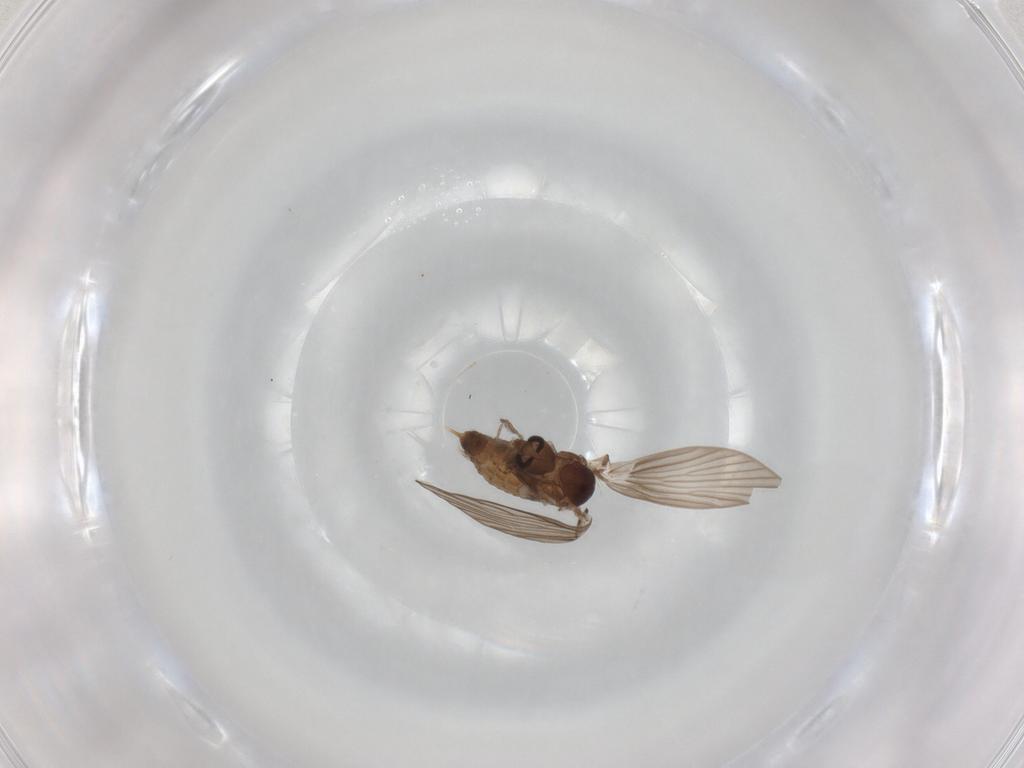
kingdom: Animalia
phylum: Arthropoda
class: Insecta
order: Diptera
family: Psychodidae
